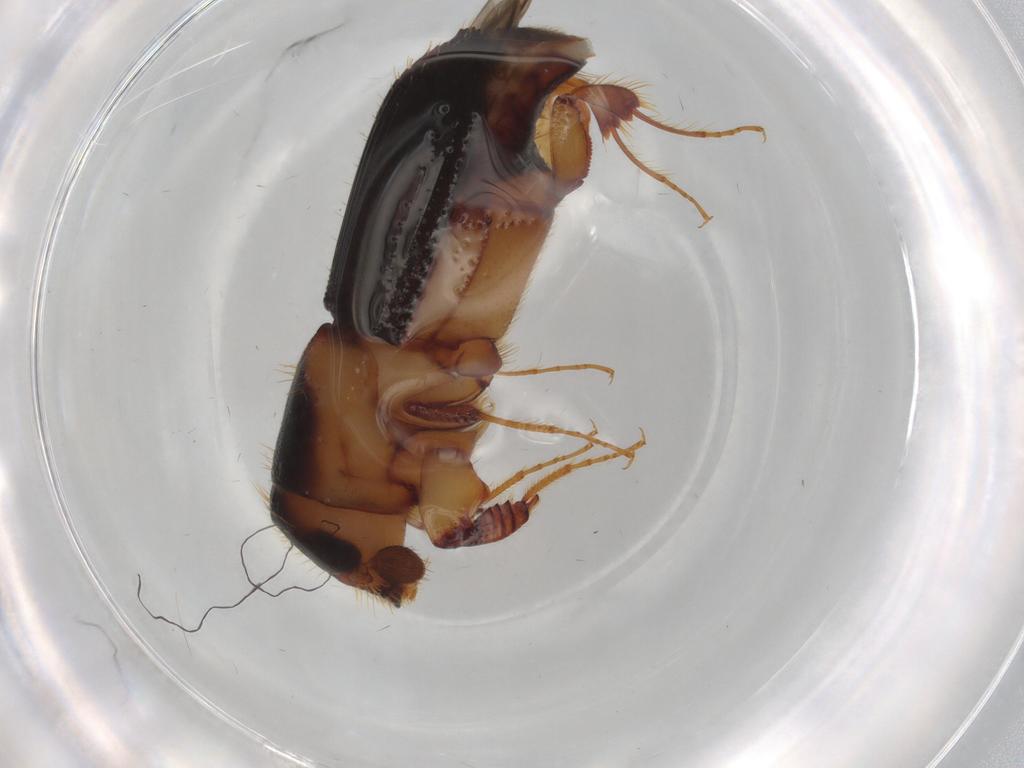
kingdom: Animalia
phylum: Arthropoda
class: Insecta
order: Coleoptera
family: Curculionidae
